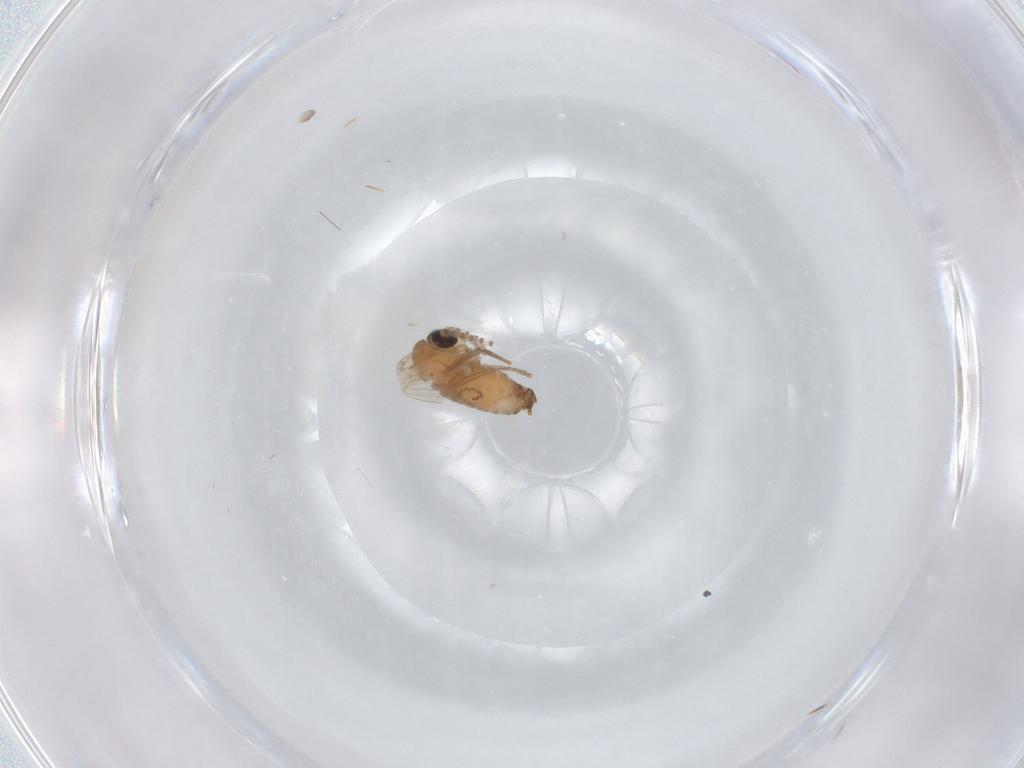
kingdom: Animalia
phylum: Arthropoda
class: Insecta
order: Diptera
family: Psychodidae
